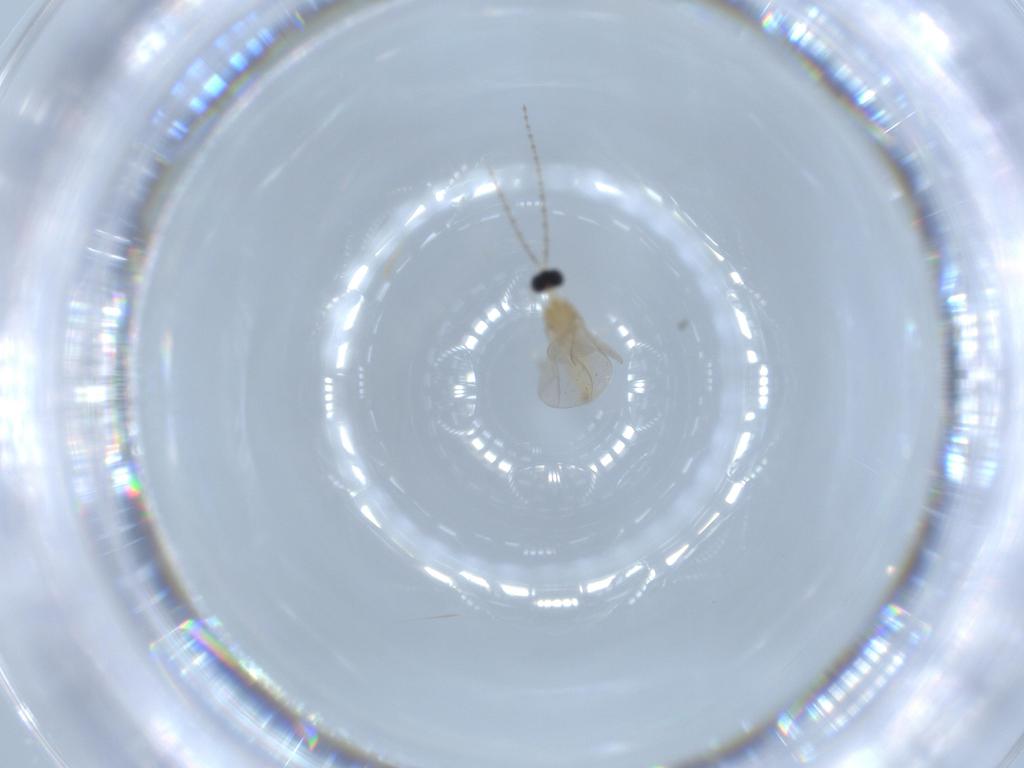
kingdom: Animalia
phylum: Arthropoda
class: Insecta
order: Diptera
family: Cecidomyiidae
